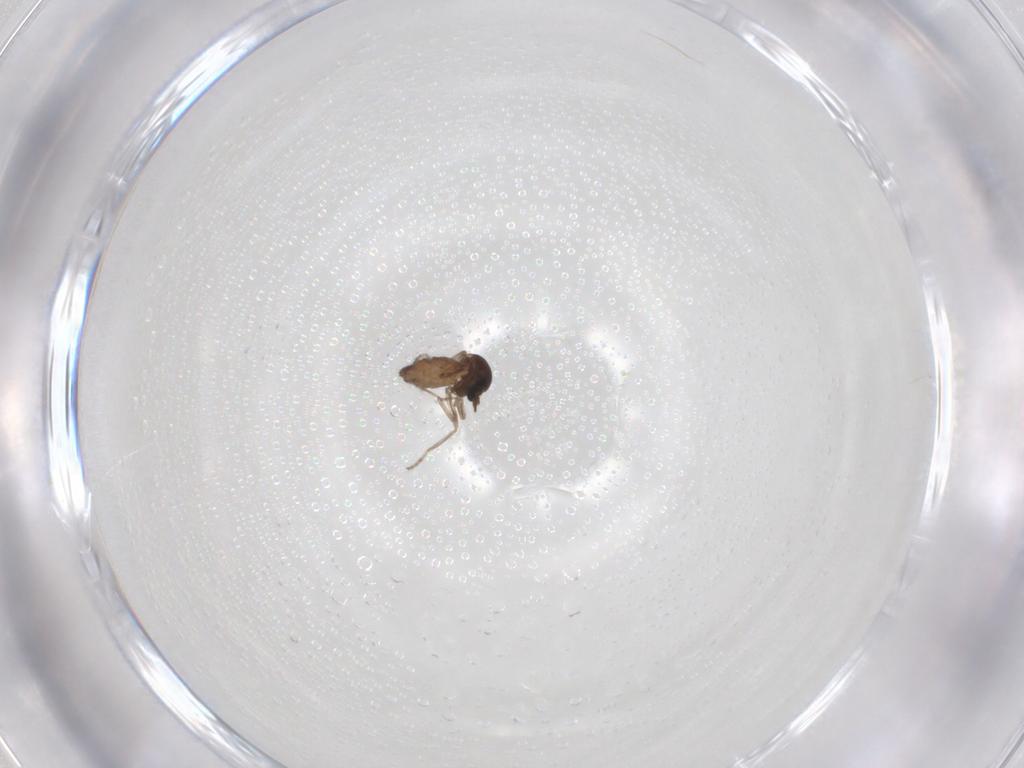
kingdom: Animalia
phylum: Arthropoda
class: Insecta
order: Diptera
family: Ceratopogonidae
